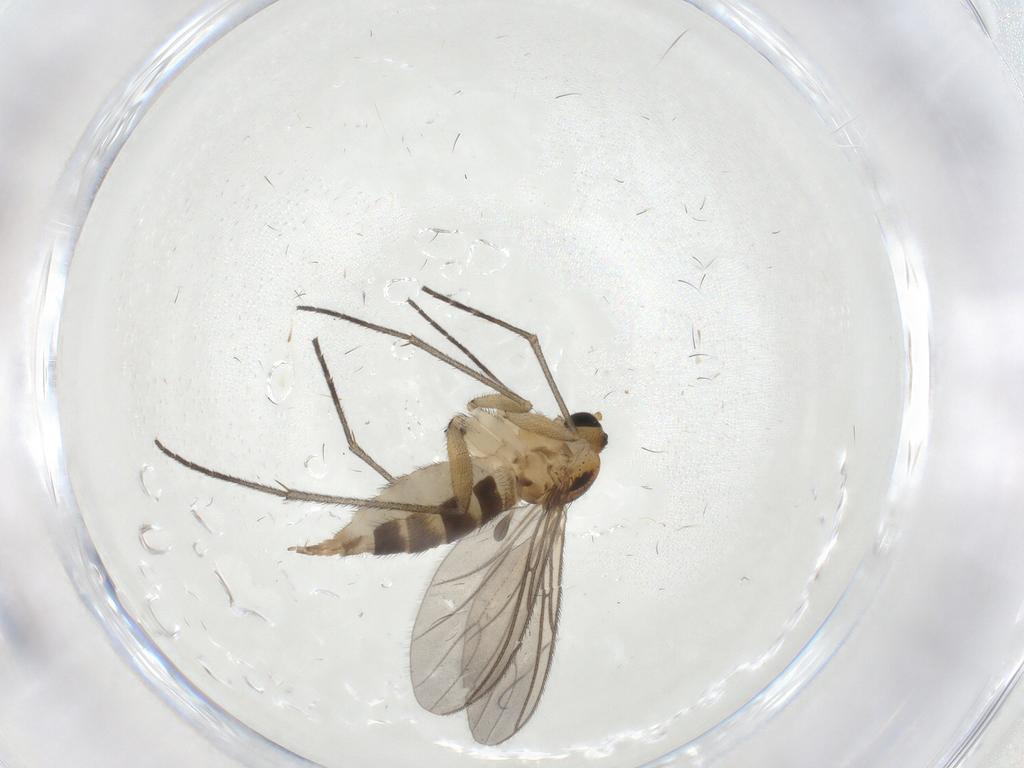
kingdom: Animalia
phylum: Arthropoda
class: Insecta
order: Diptera
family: Sciaridae
